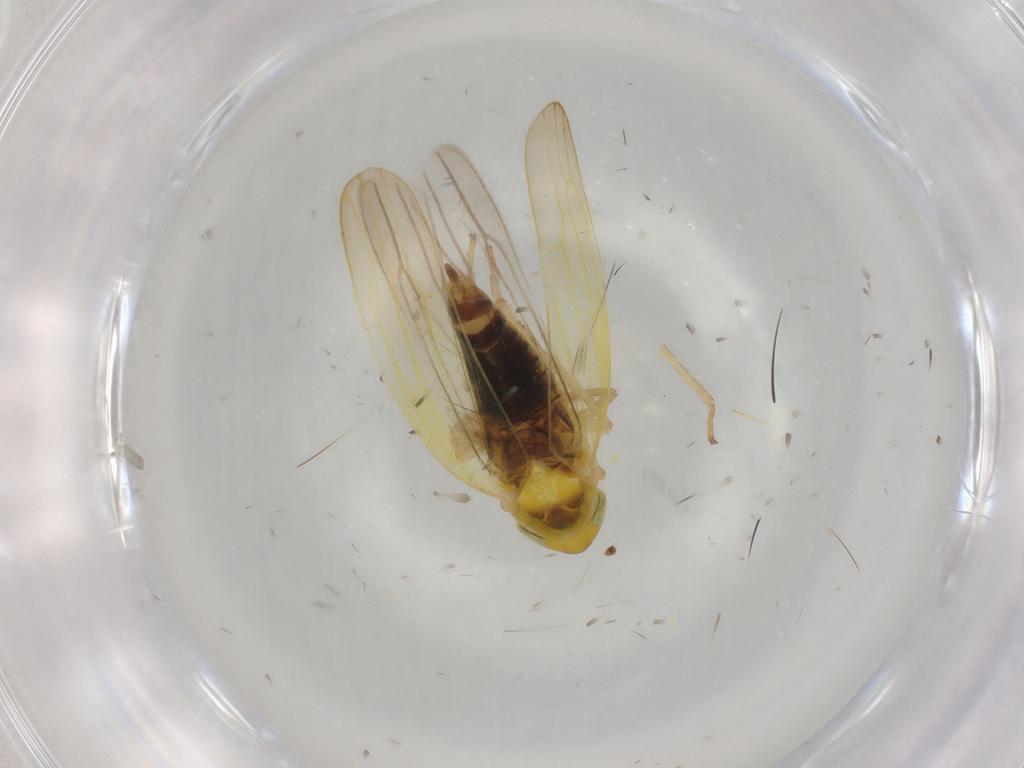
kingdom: Animalia
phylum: Arthropoda
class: Insecta
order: Hemiptera
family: Cicadellidae
